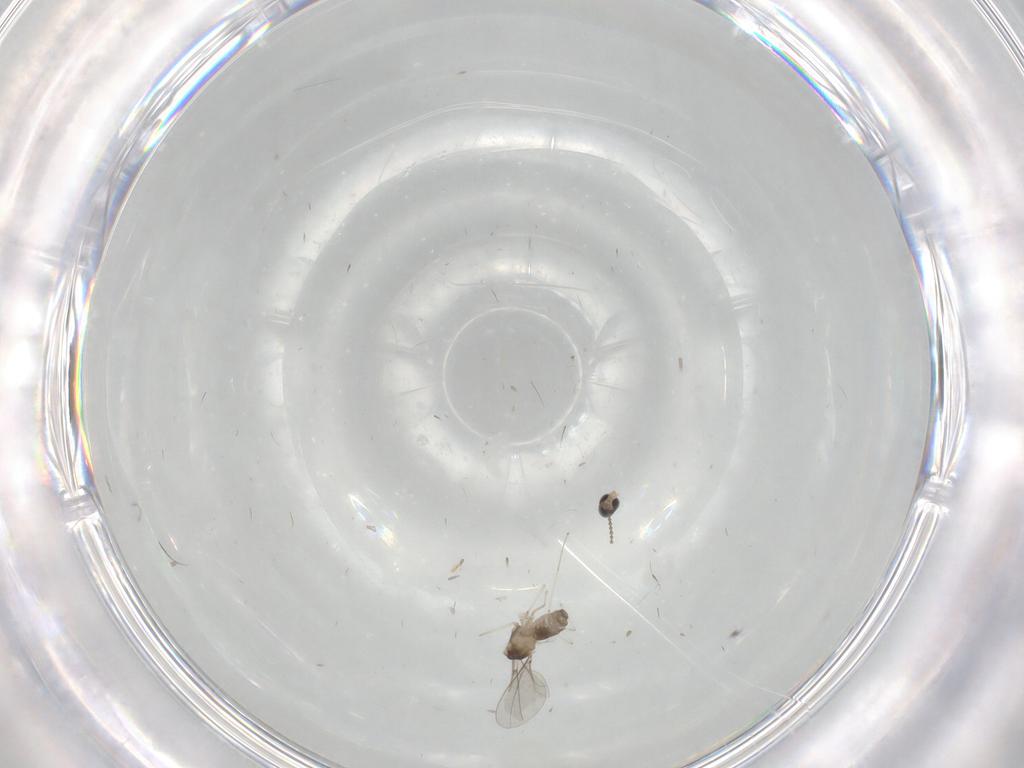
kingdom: Animalia
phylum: Arthropoda
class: Insecta
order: Diptera
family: Cecidomyiidae
